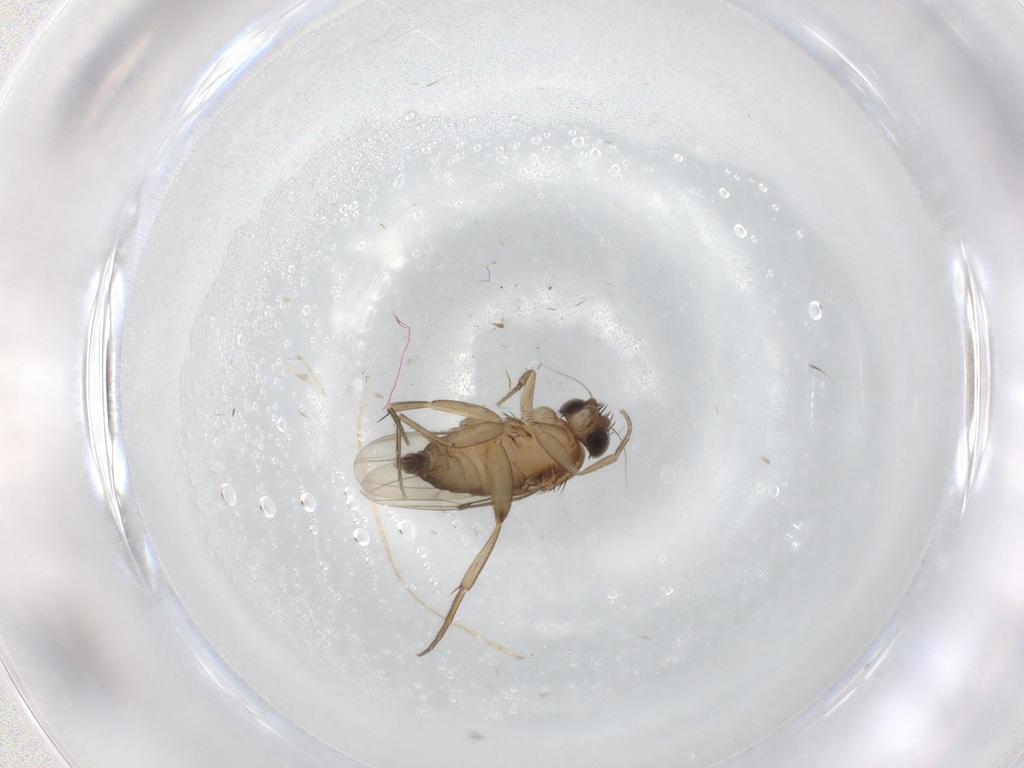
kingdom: Animalia
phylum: Arthropoda
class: Insecta
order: Diptera
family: Phoridae
